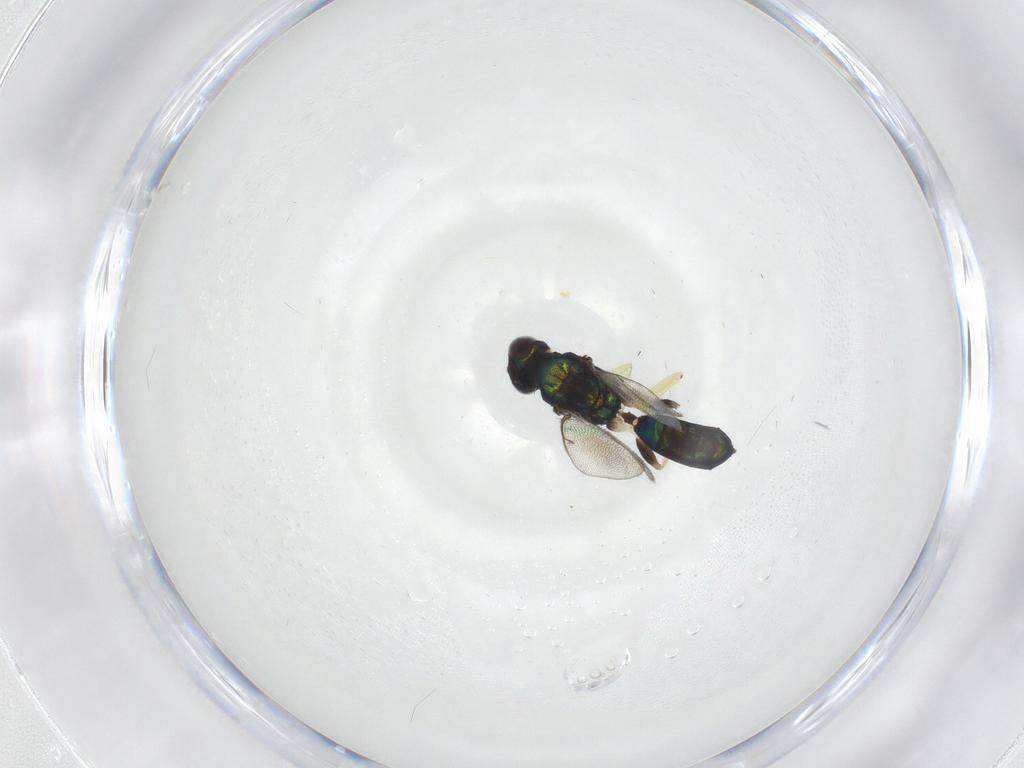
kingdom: Animalia
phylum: Arthropoda
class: Insecta
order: Hymenoptera
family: Eulophidae
